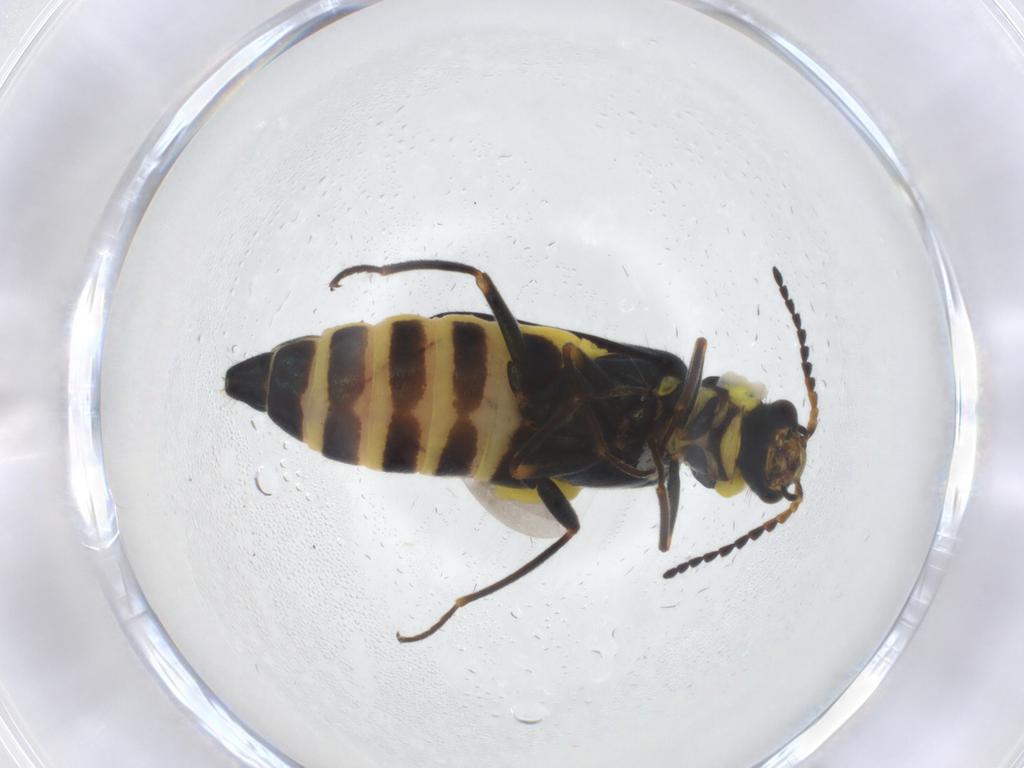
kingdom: Animalia
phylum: Arthropoda
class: Insecta
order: Coleoptera
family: Melyridae
